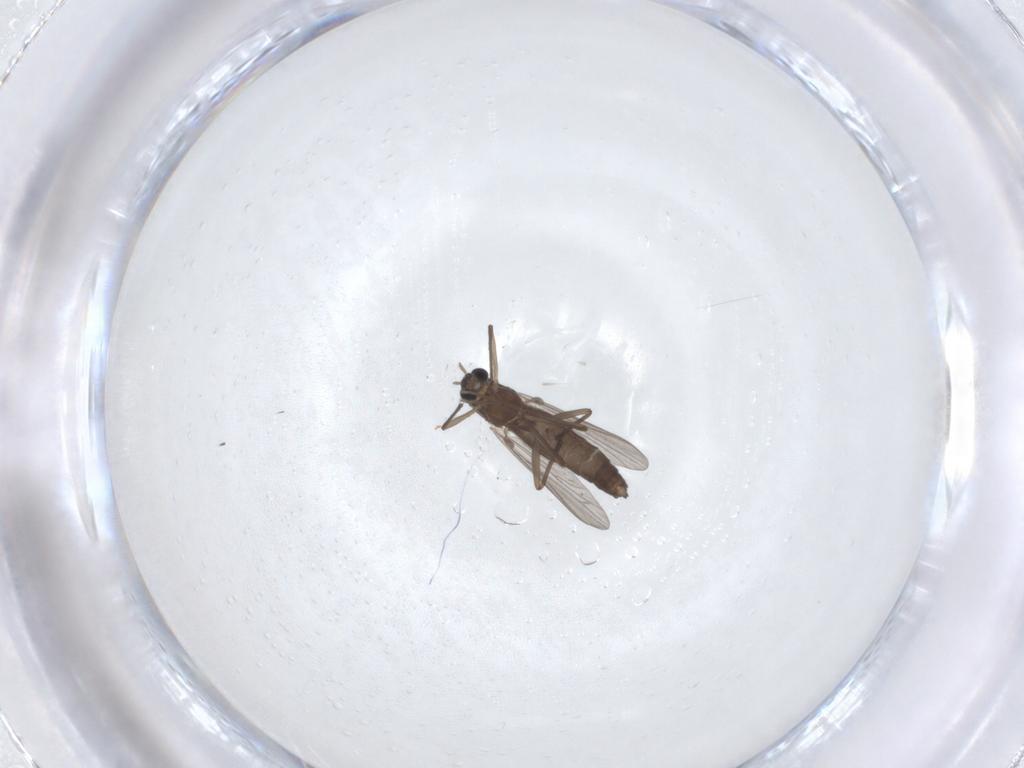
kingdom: Animalia
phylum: Arthropoda
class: Insecta
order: Diptera
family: Chironomidae
